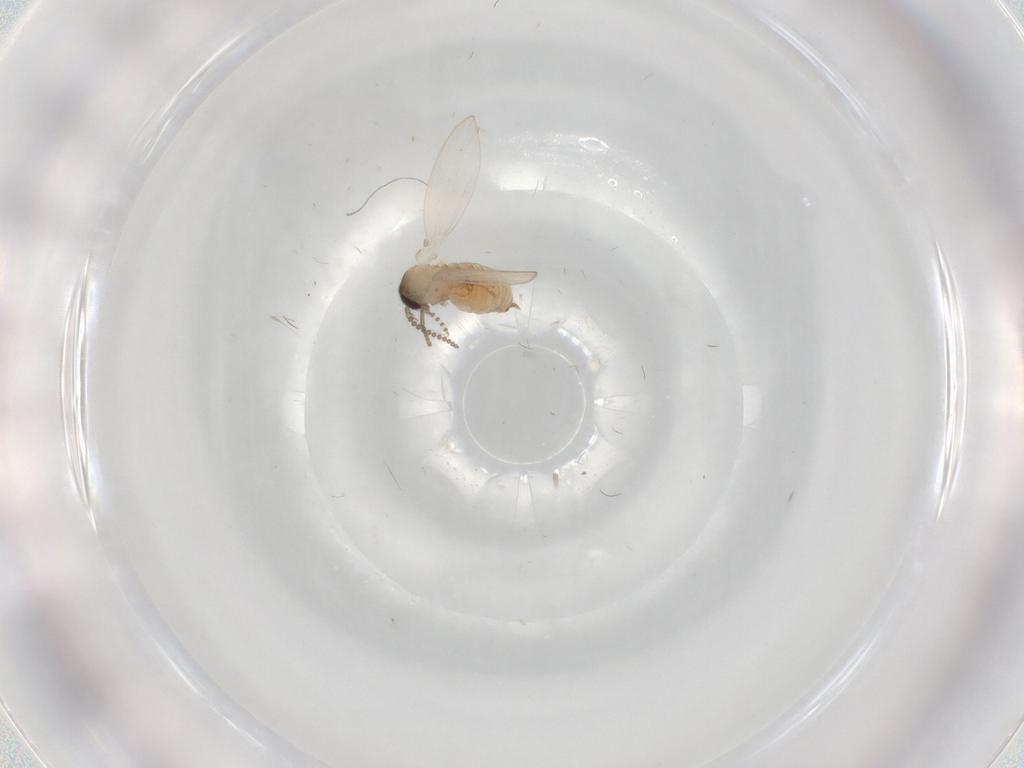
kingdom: Animalia
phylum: Arthropoda
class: Insecta
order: Diptera
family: Psychodidae
